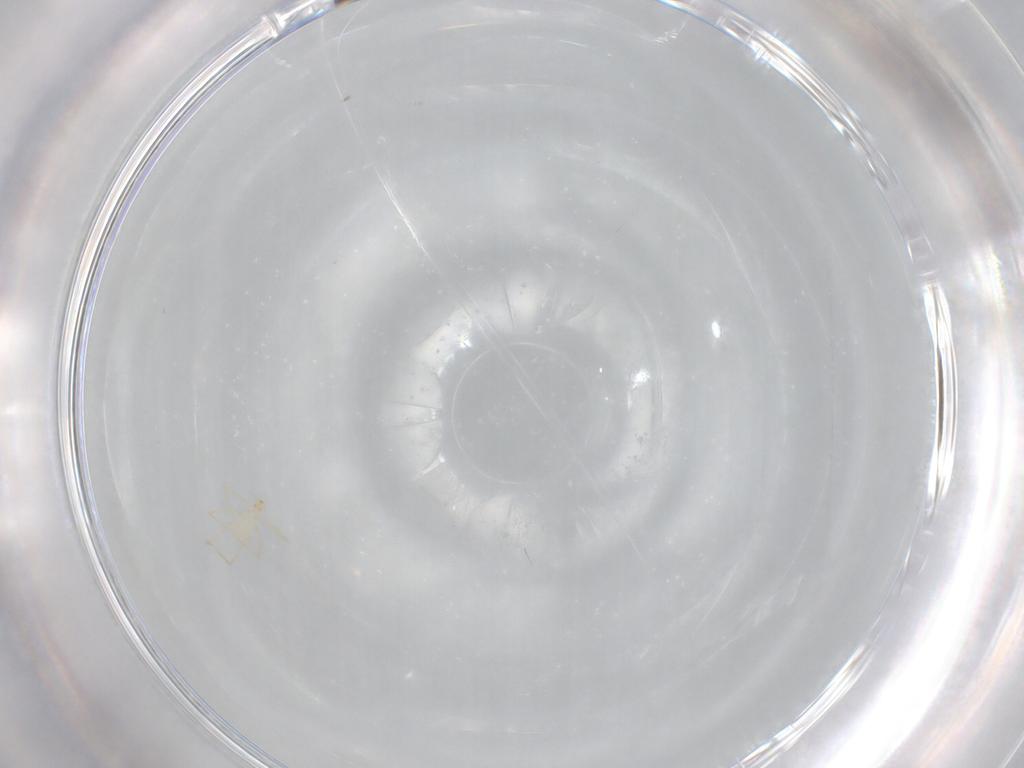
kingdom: Animalia
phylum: Arthropoda
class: Arachnida
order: Trombidiformes
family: Erythraeidae
